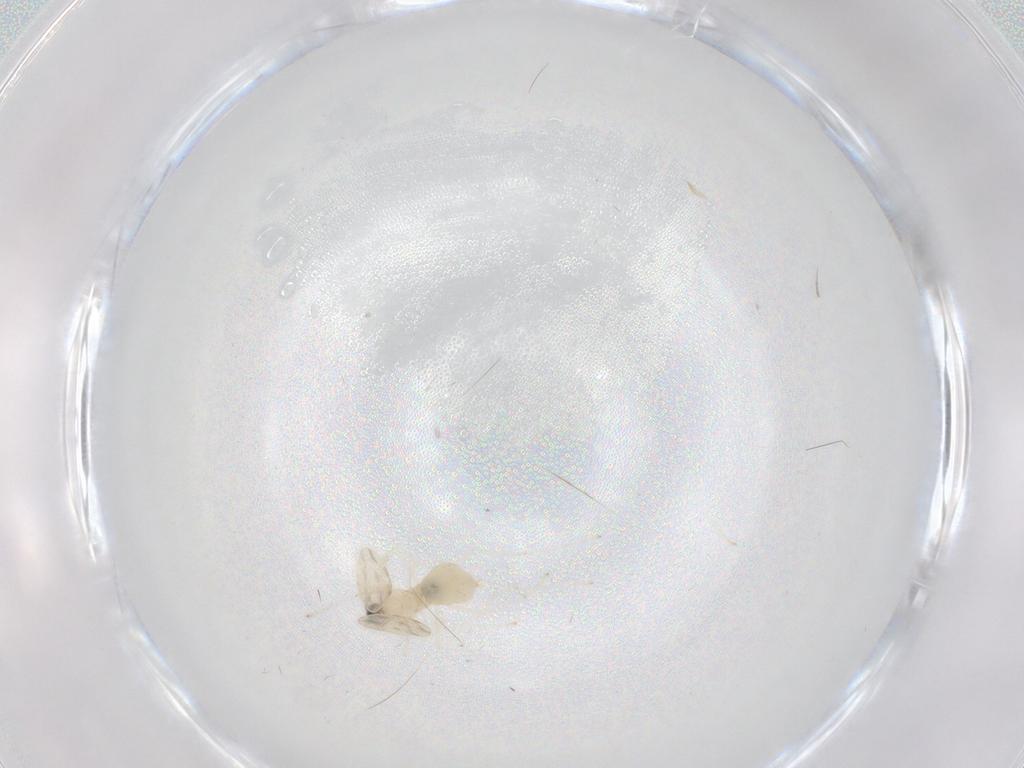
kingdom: Animalia
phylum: Arthropoda
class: Insecta
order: Diptera
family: Cecidomyiidae
